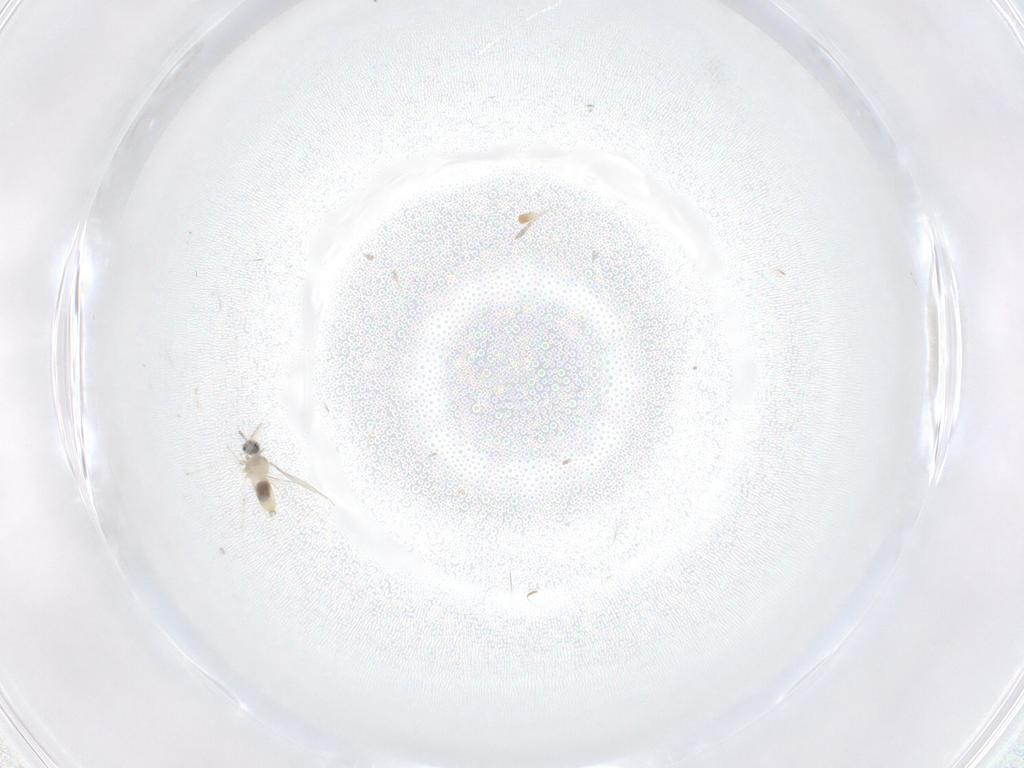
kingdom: Animalia
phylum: Arthropoda
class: Insecta
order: Diptera
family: Cecidomyiidae
